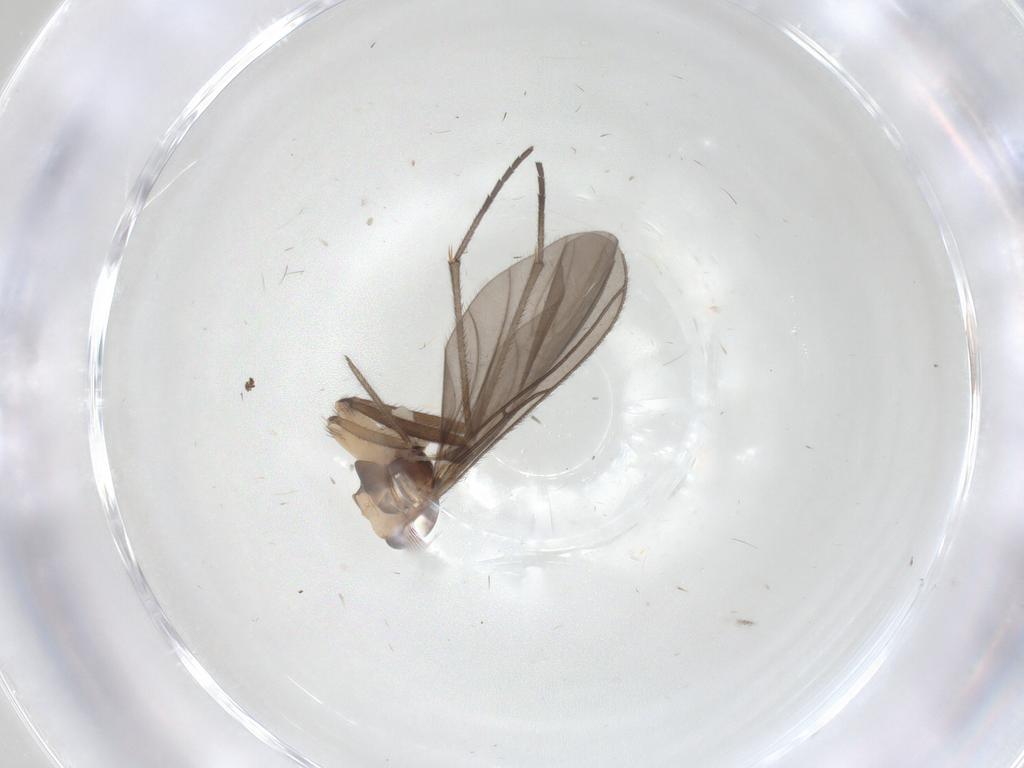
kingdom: Animalia
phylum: Arthropoda
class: Insecta
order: Diptera
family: Sciaridae
